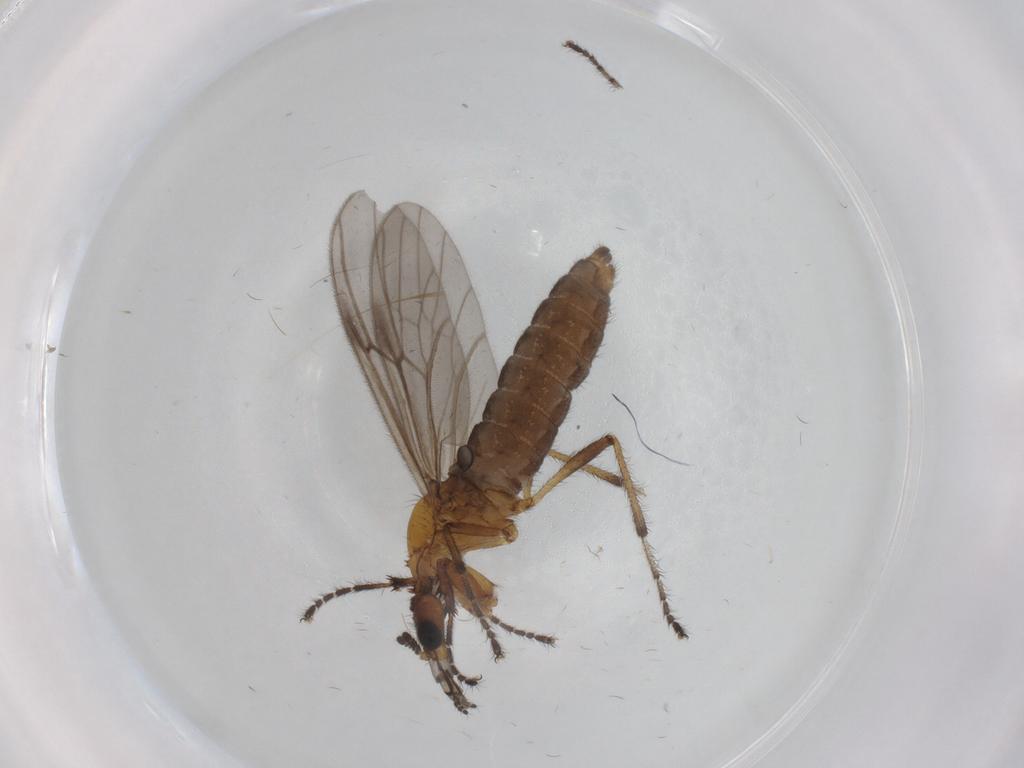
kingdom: Animalia
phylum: Arthropoda
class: Insecta
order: Diptera
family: Bibionidae
